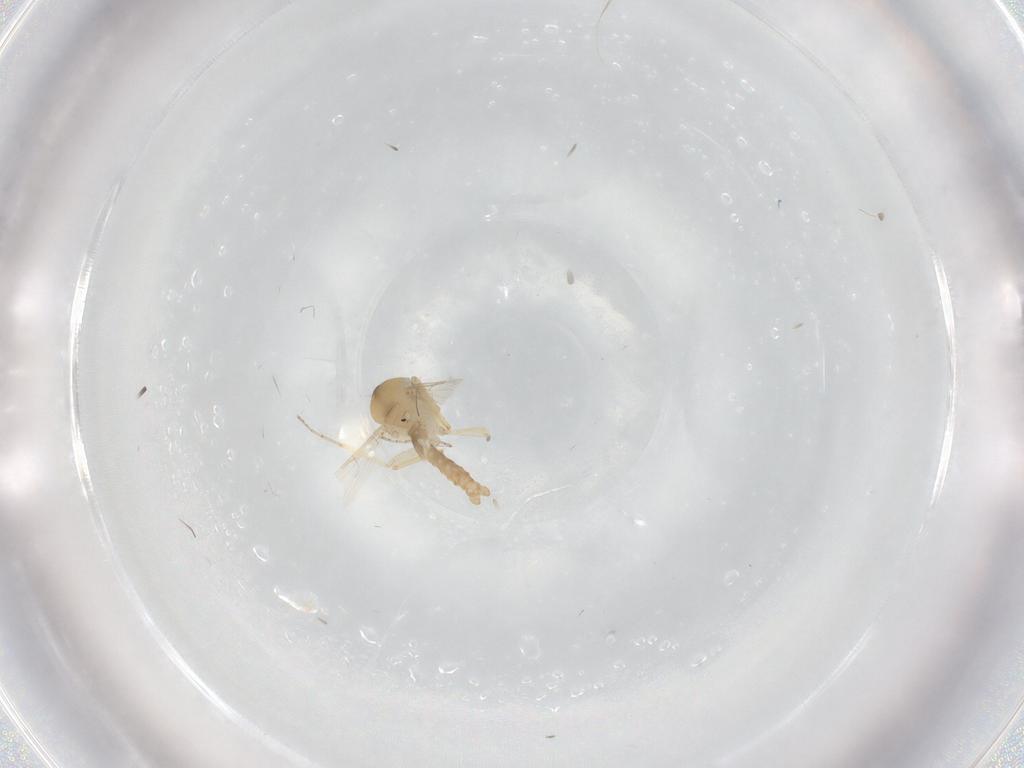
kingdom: Animalia
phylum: Arthropoda
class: Insecta
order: Diptera
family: Ceratopogonidae
